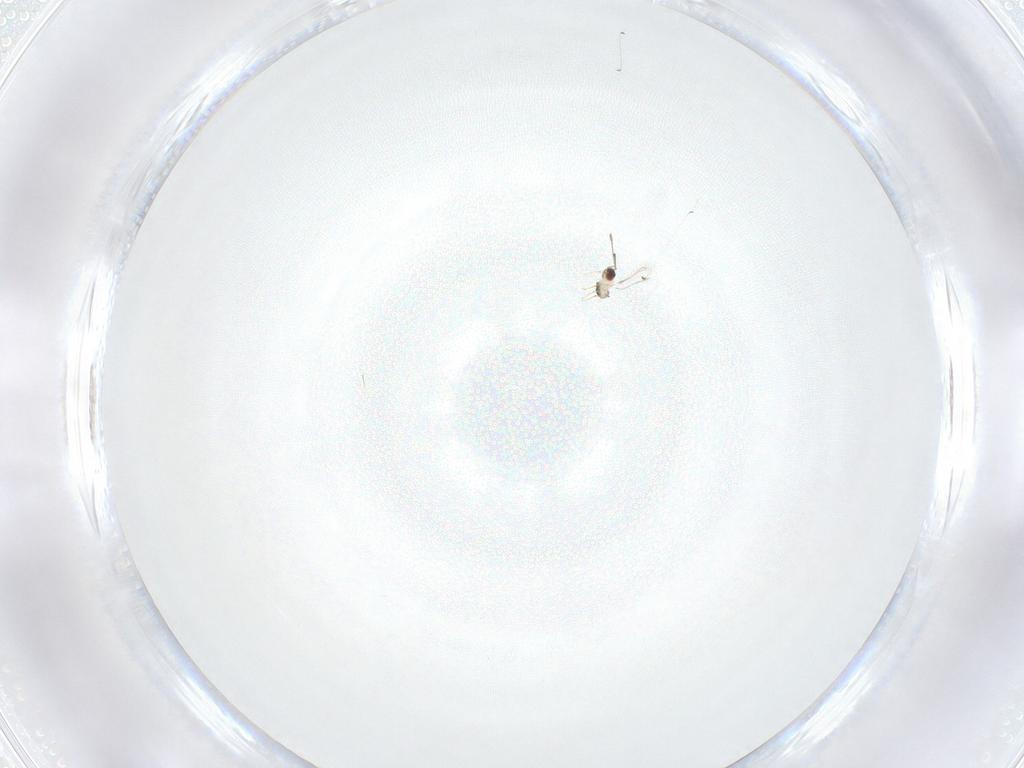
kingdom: Animalia
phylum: Arthropoda
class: Insecta
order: Hymenoptera
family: Mymaridae
